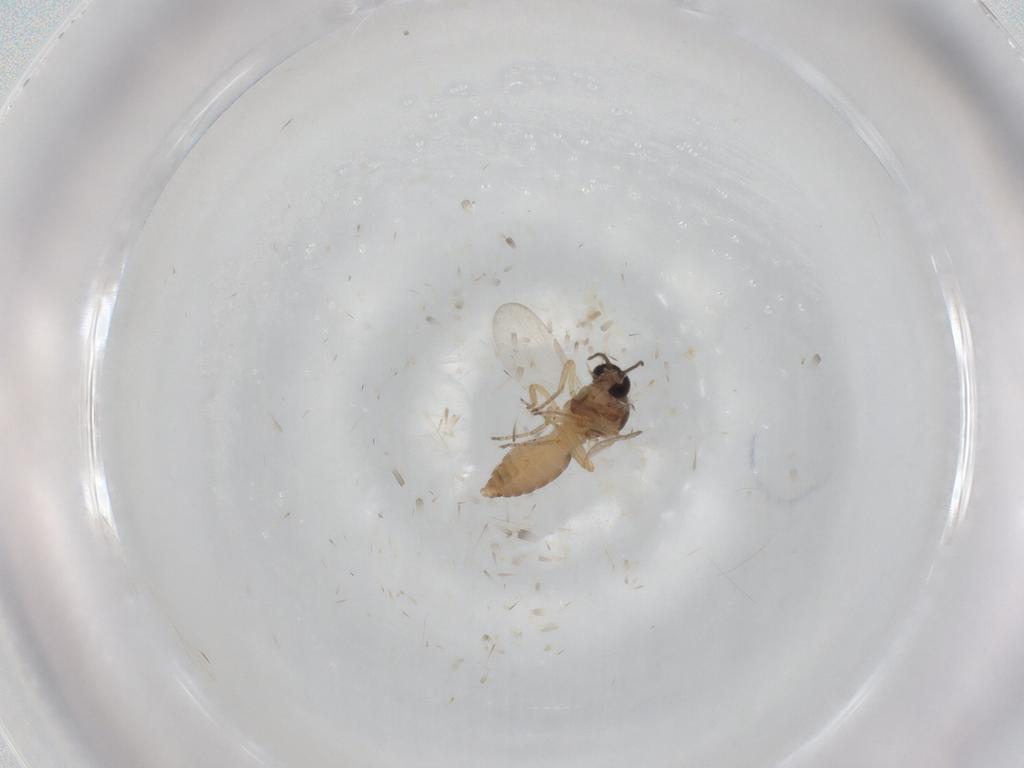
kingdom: Animalia
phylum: Arthropoda
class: Insecta
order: Diptera
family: Ceratopogonidae
